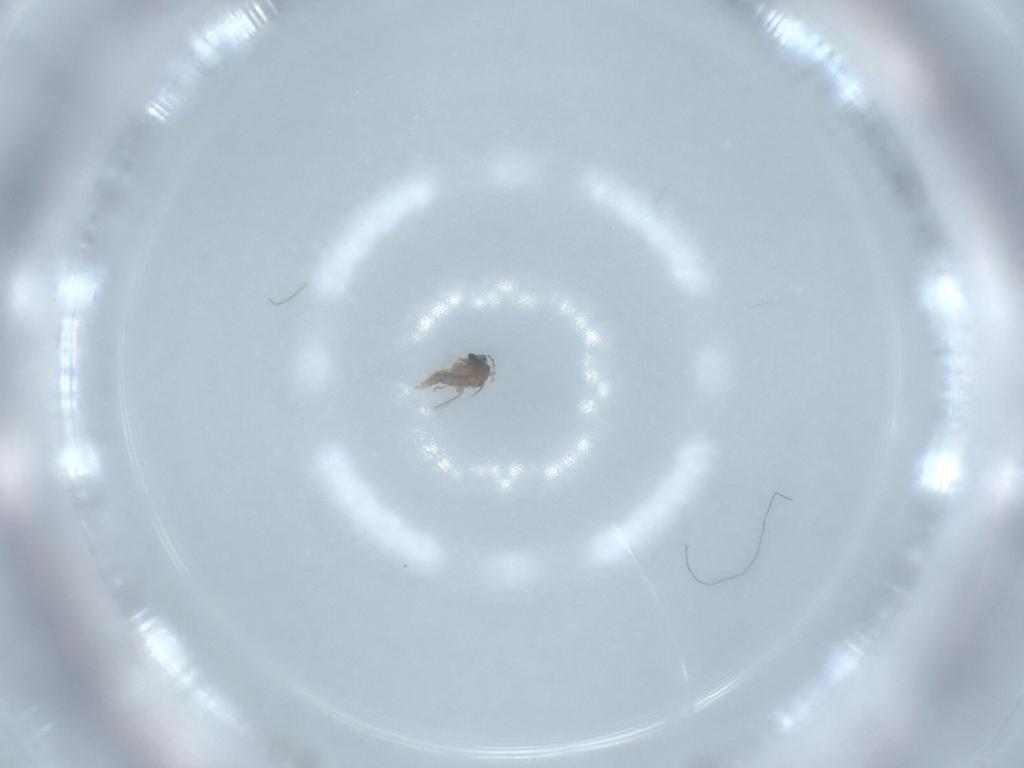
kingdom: Animalia
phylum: Arthropoda
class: Insecta
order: Diptera
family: Cecidomyiidae
